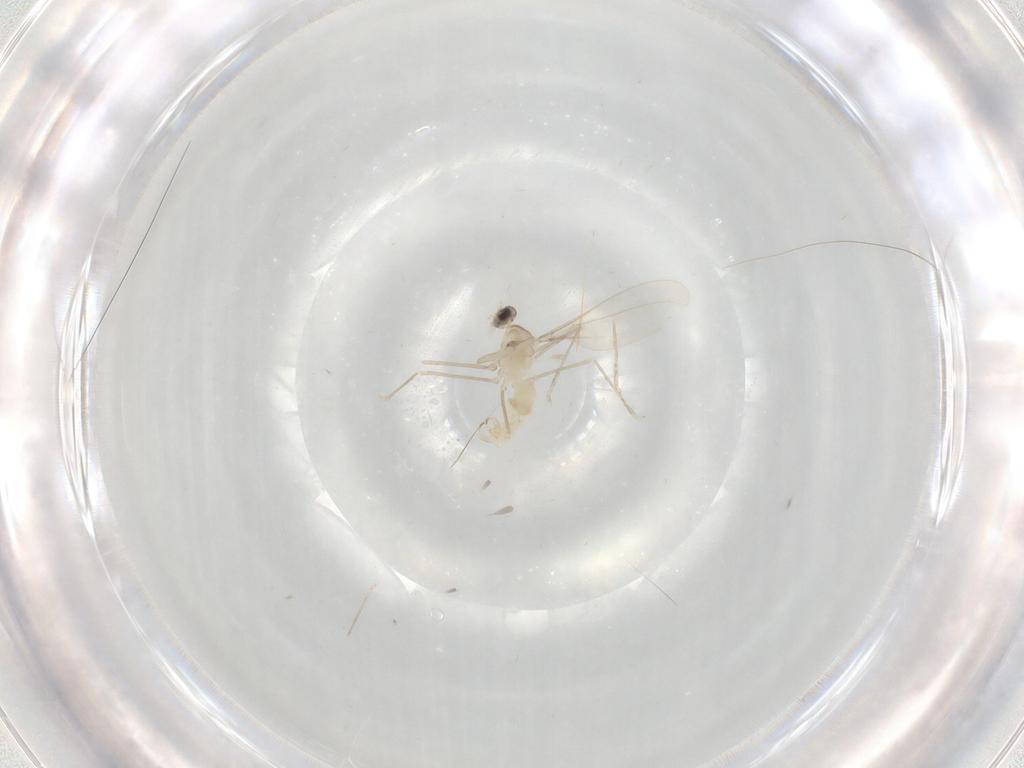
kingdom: Animalia
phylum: Arthropoda
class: Insecta
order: Diptera
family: Cecidomyiidae
